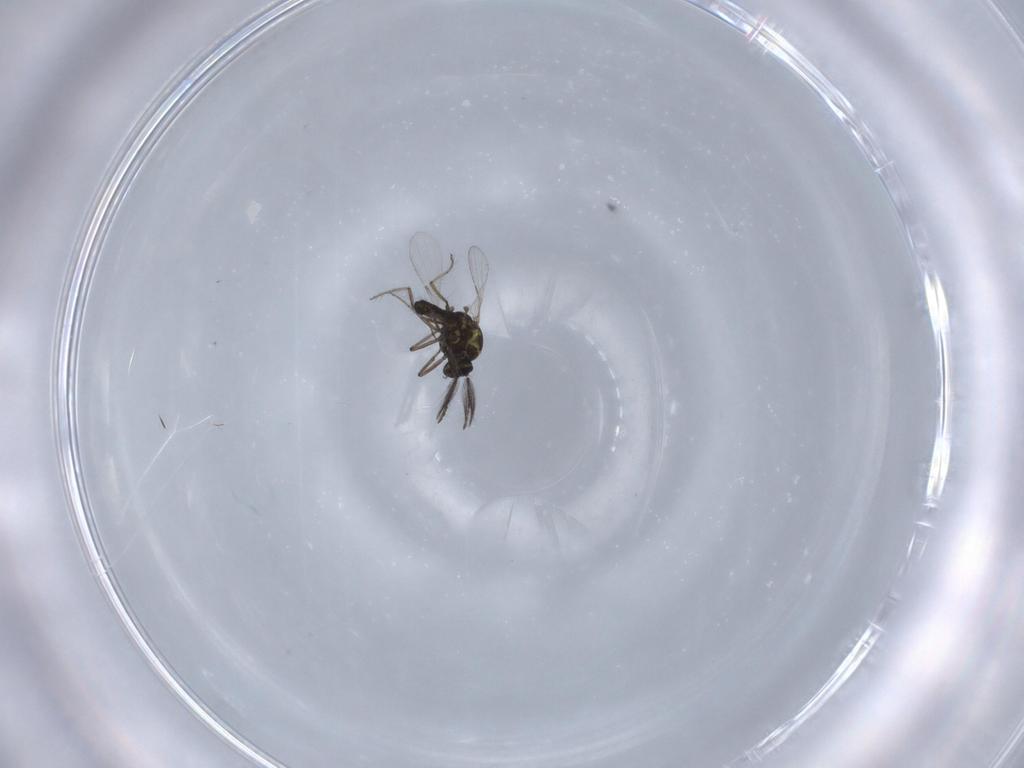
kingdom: Animalia
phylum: Arthropoda
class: Insecta
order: Diptera
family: Ceratopogonidae
